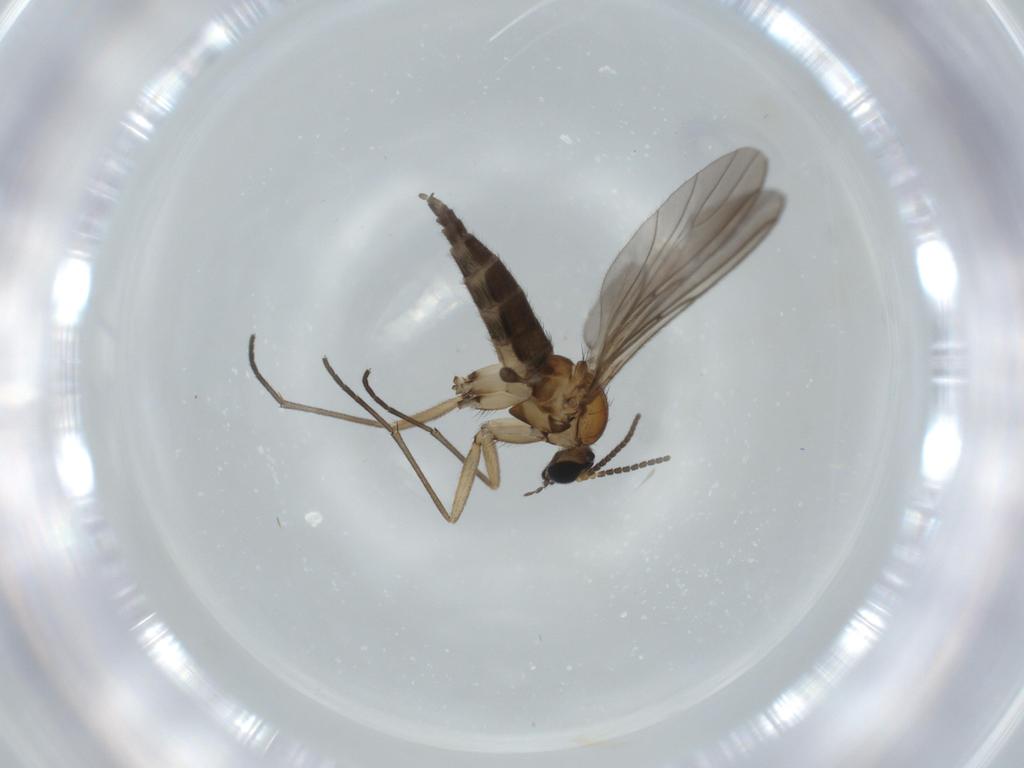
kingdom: Animalia
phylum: Arthropoda
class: Insecta
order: Diptera
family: Sciaridae
